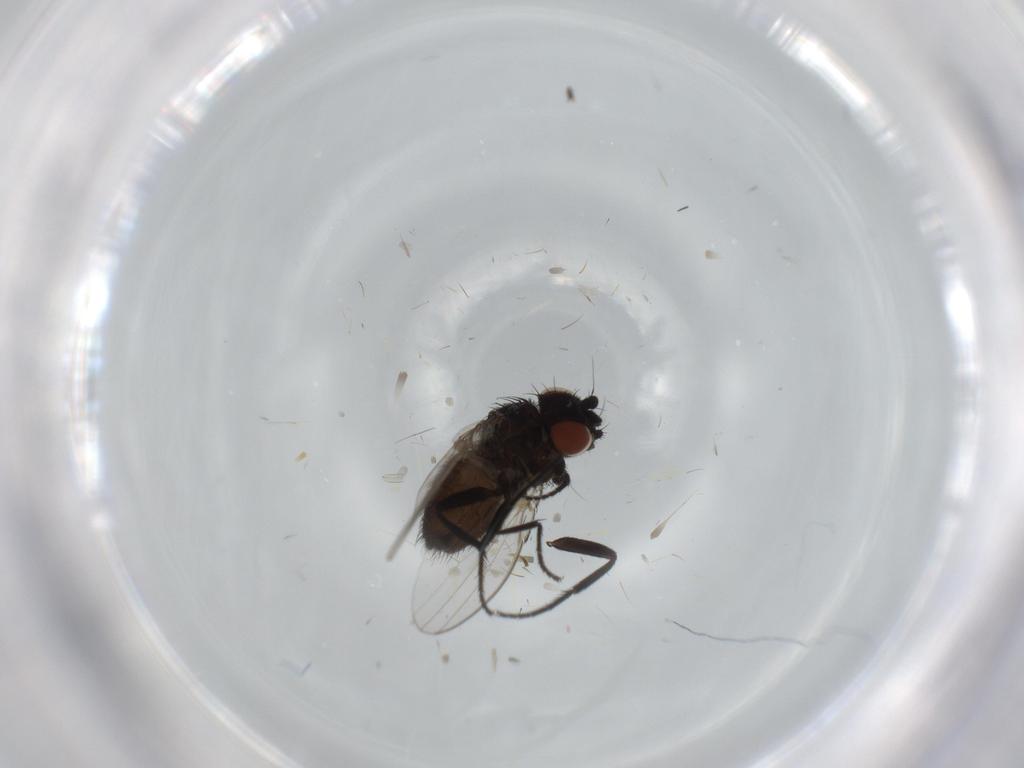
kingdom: Animalia
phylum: Arthropoda
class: Insecta
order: Diptera
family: Milichiidae
